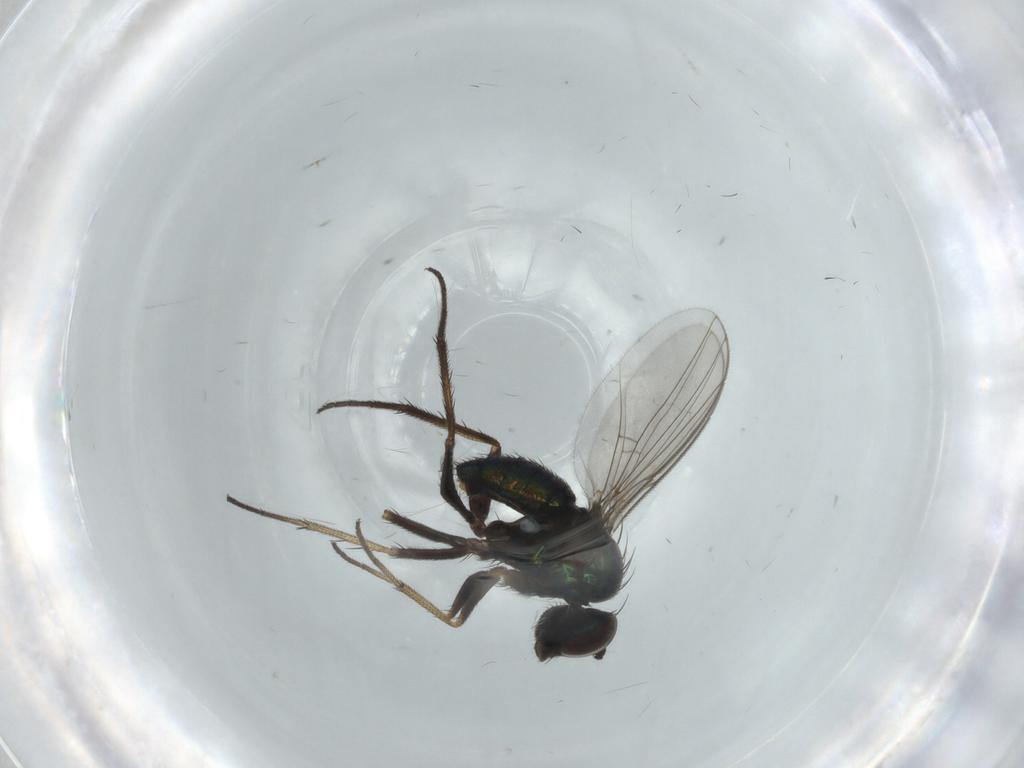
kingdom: Animalia
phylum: Arthropoda
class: Insecta
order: Diptera
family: Dolichopodidae
